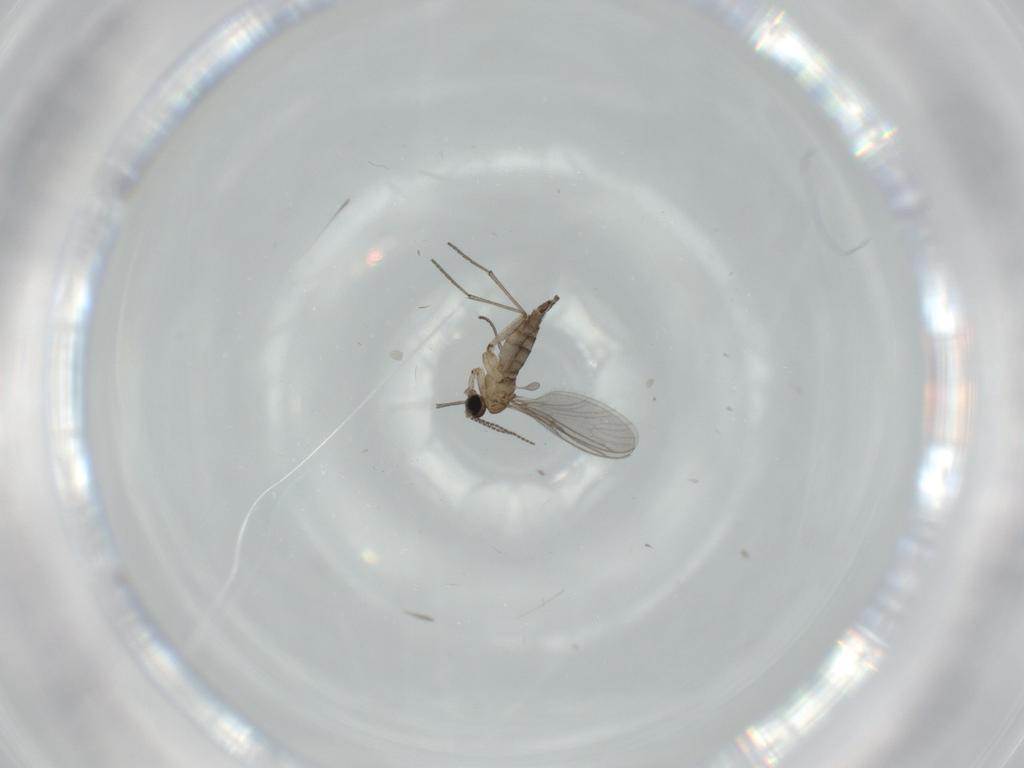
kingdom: Animalia
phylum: Arthropoda
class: Insecta
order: Diptera
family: Sciaridae
